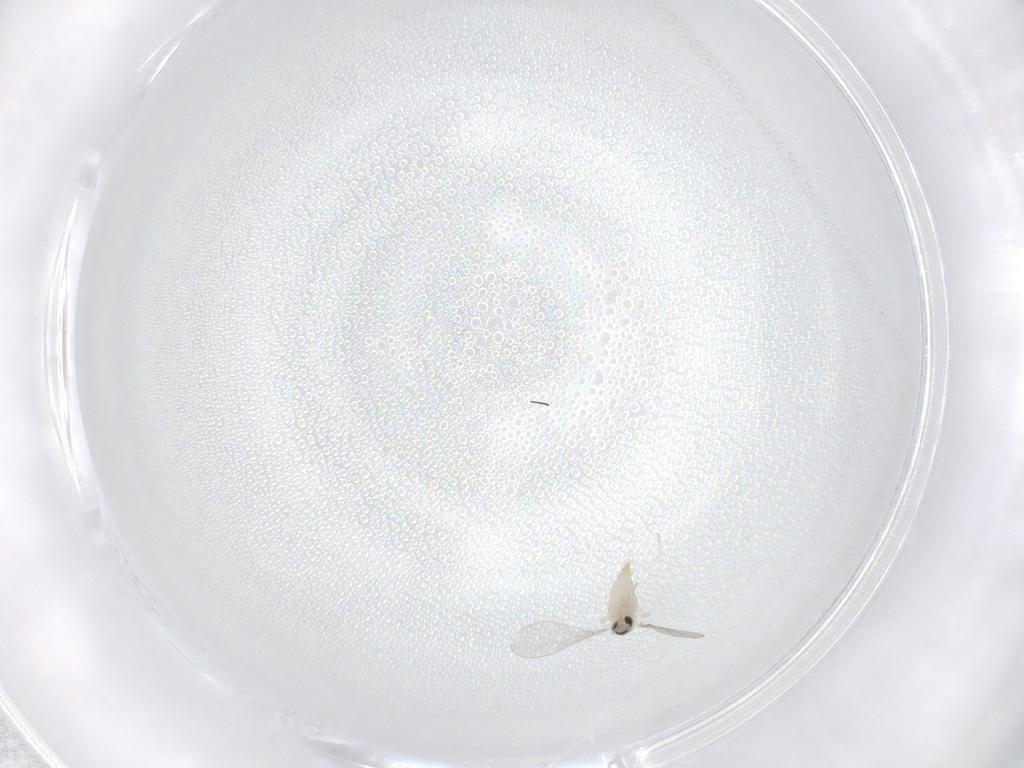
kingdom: Animalia
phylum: Arthropoda
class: Insecta
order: Diptera
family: Cecidomyiidae
